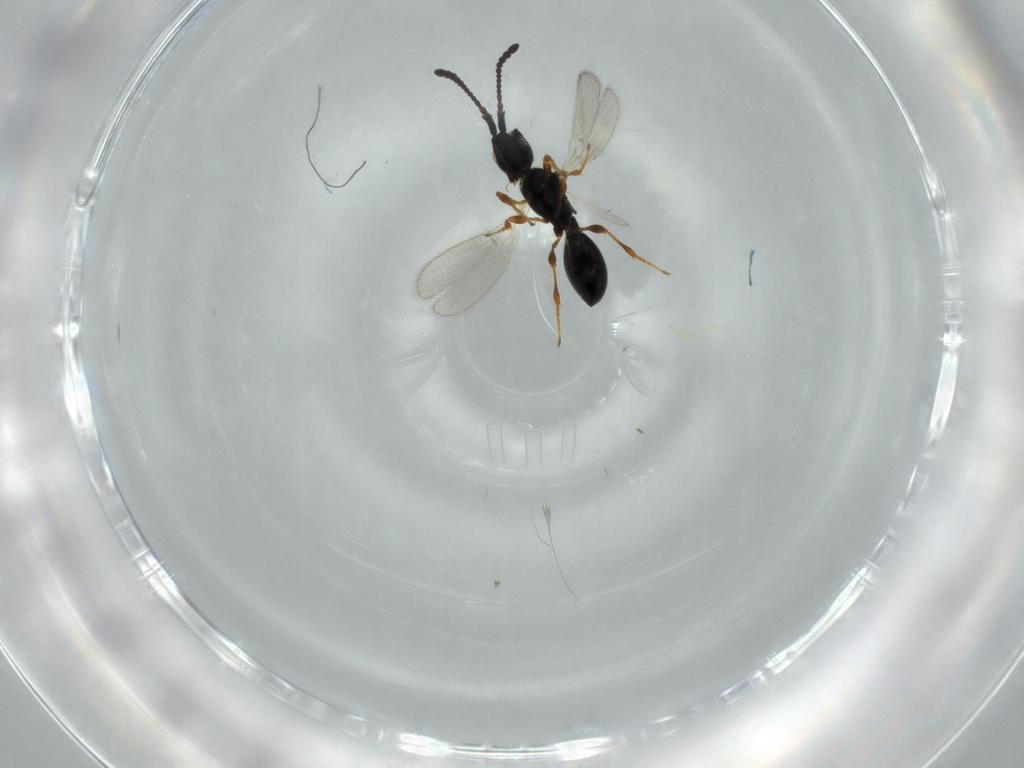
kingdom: Animalia
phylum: Arthropoda
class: Insecta
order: Hymenoptera
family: Diapriidae
